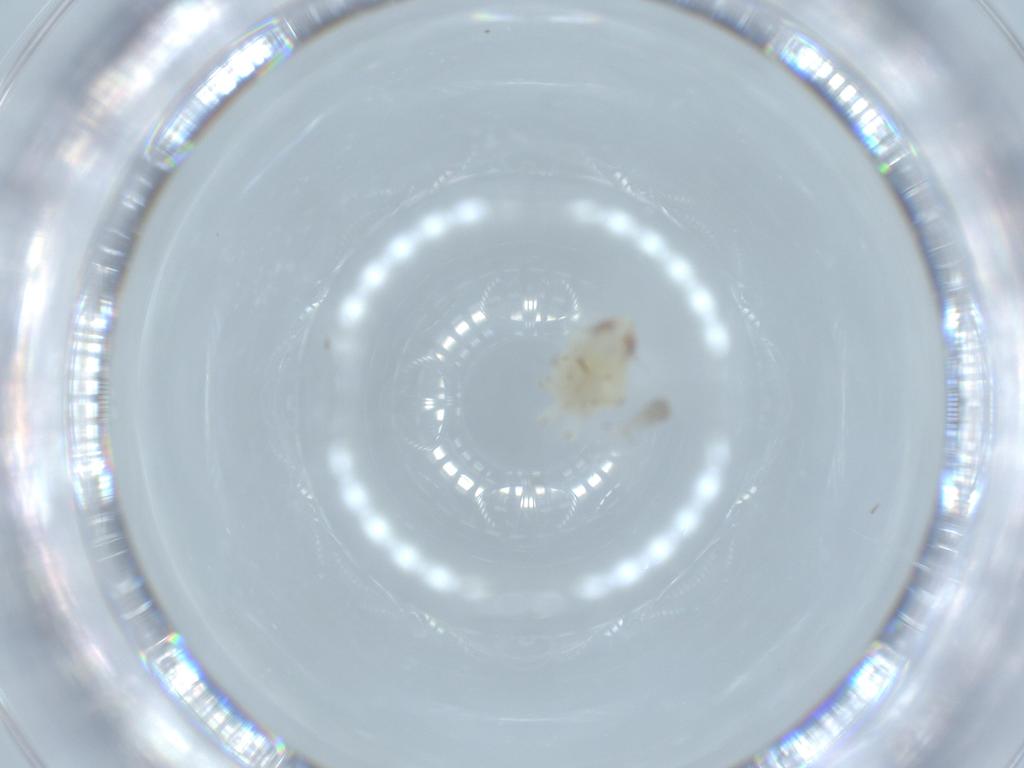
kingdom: Animalia
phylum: Arthropoda
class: Insecta
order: Hemiptera
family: Nogodinidae
